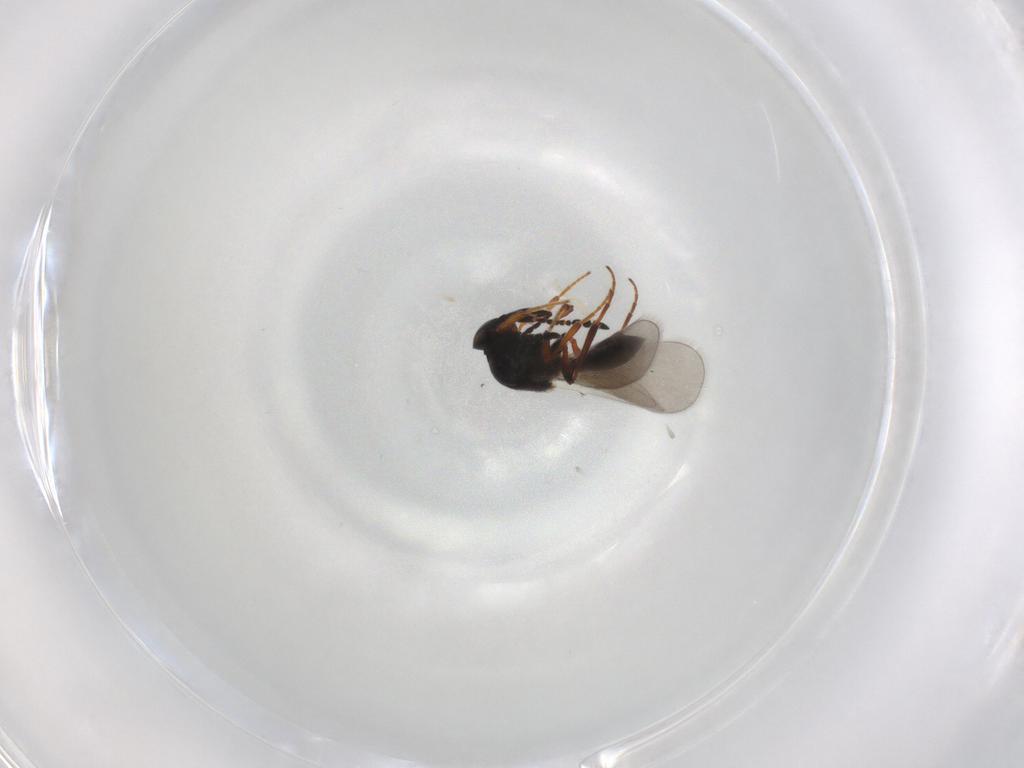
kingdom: Animalia
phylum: Arthropoda
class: Insecta
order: Hymenoptera
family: Platygastridae
